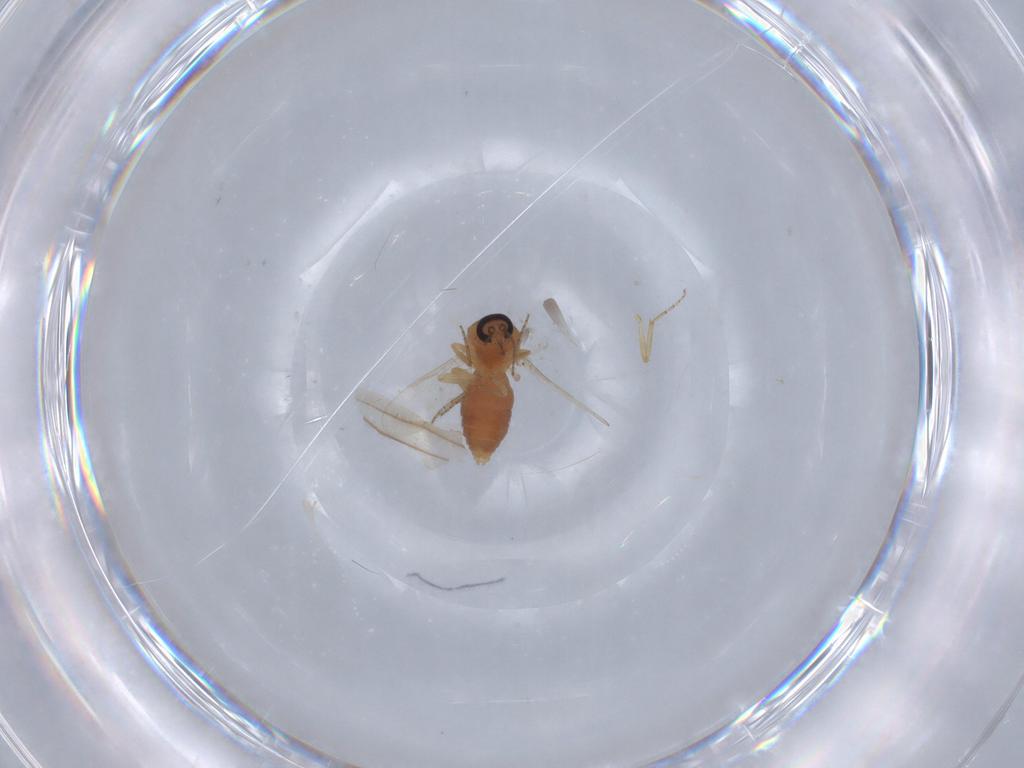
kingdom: Animalia
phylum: Arthropoda
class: Insecta
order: Diptera
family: Ceratopogonidae
